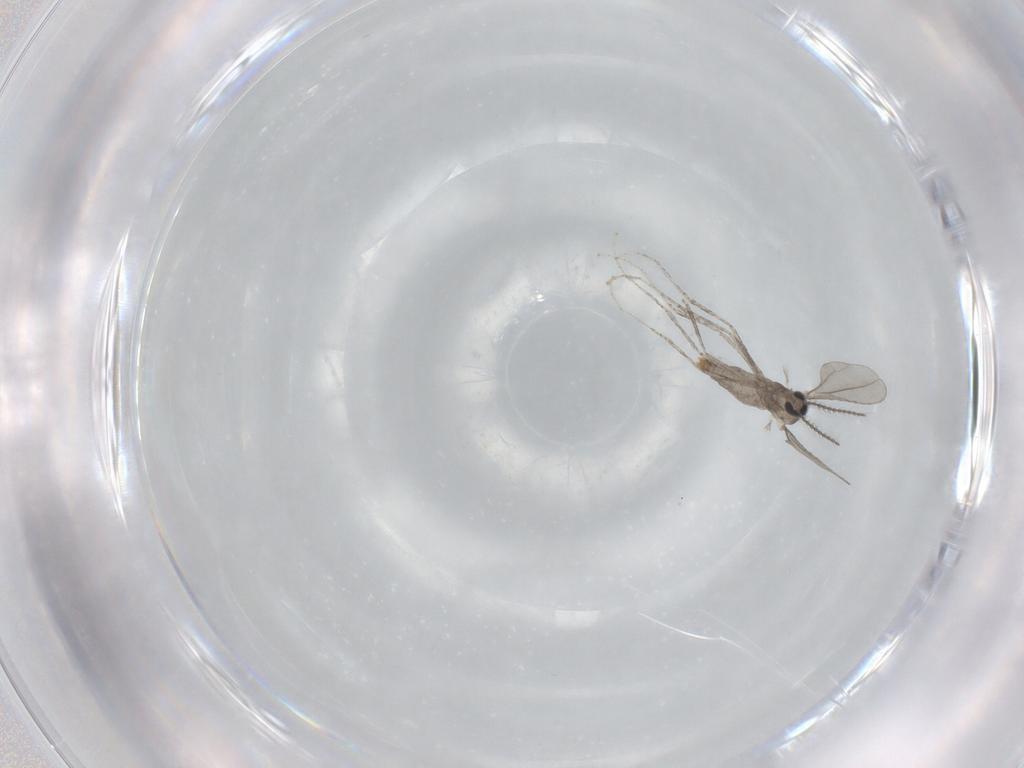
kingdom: Animalia
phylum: Arthropoda
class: Insecta
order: Diptera
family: Cecidomyiidae
